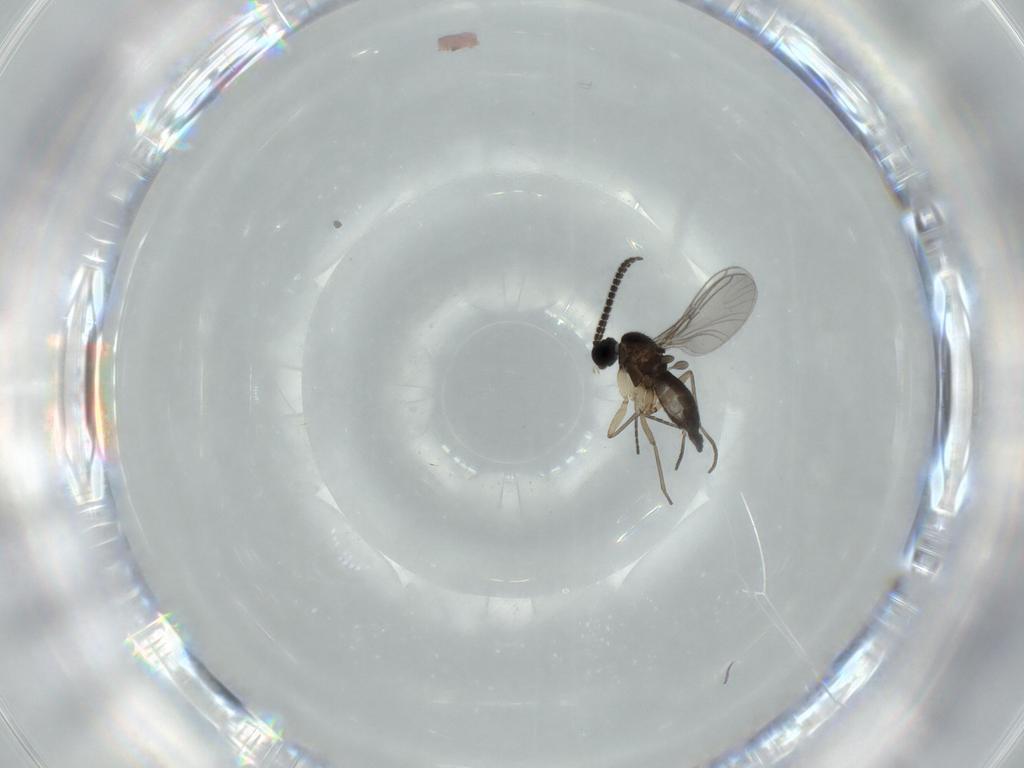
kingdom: Animalia
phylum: Arthropoda
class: Insecta
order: Diptera
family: Sciaridae
